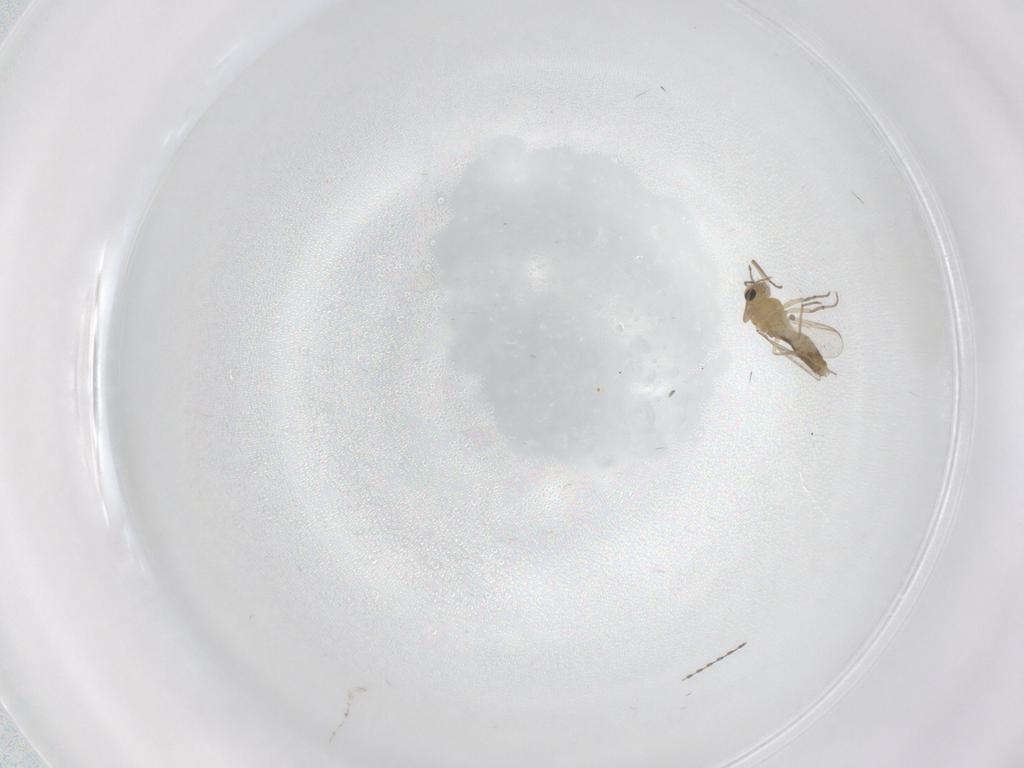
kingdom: Animalia
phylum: Arthropoda
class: Insecta
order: Diptera
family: Cecidomyiidae
